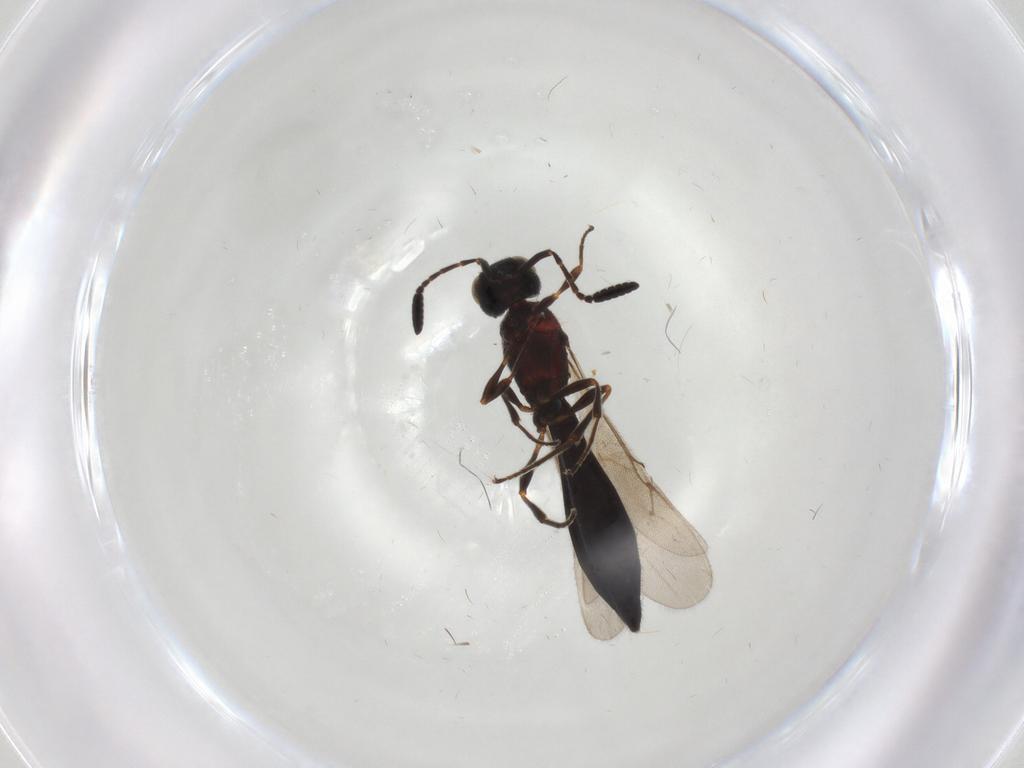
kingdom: Animalia
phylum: Arthropoda
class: Insecta
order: Hymenoptera
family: Scelionidae
